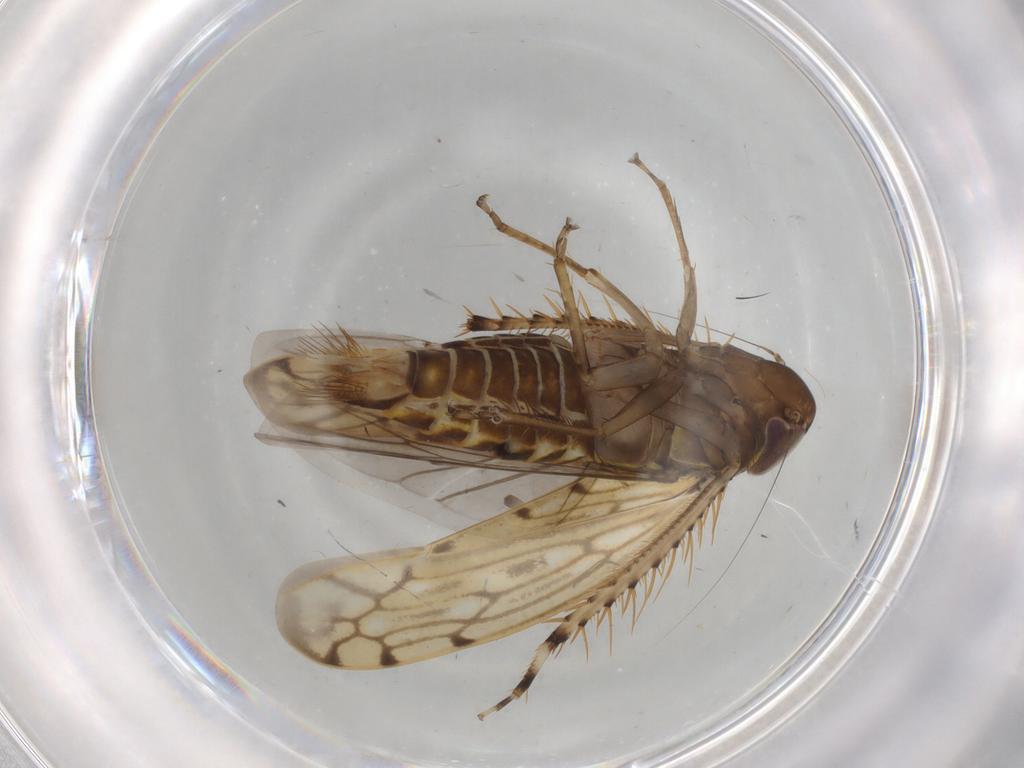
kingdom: Animalia
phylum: Arthropoda
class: Insecta
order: Hemiptera
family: Cicadellidae
